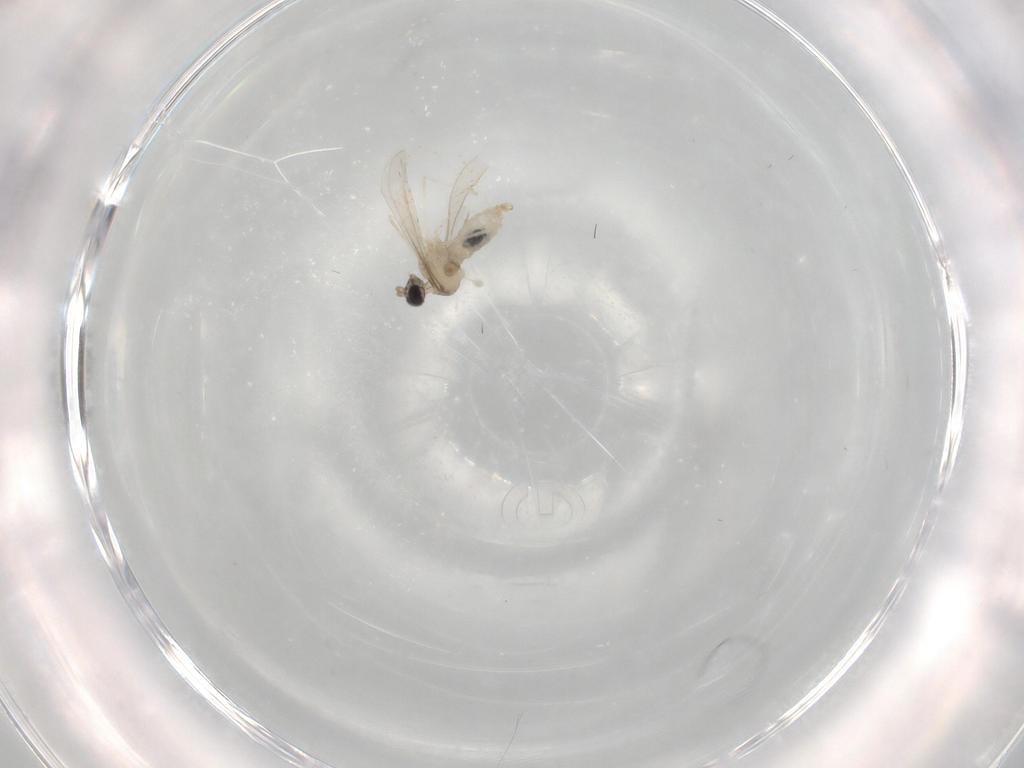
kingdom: Animalia
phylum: Arthropoda
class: Insecta
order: Diptera
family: Cecidomyiidae
